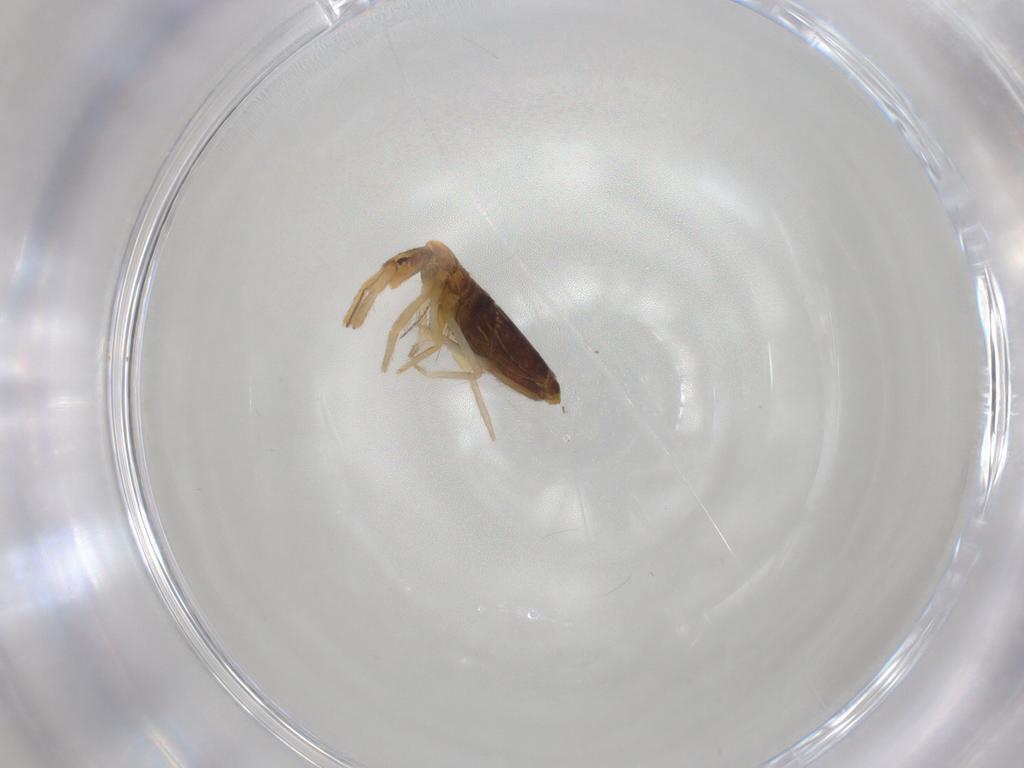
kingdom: Animalia
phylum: Arthropoda
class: Collembola
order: Entomobryomorpha
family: Entomobryidae
